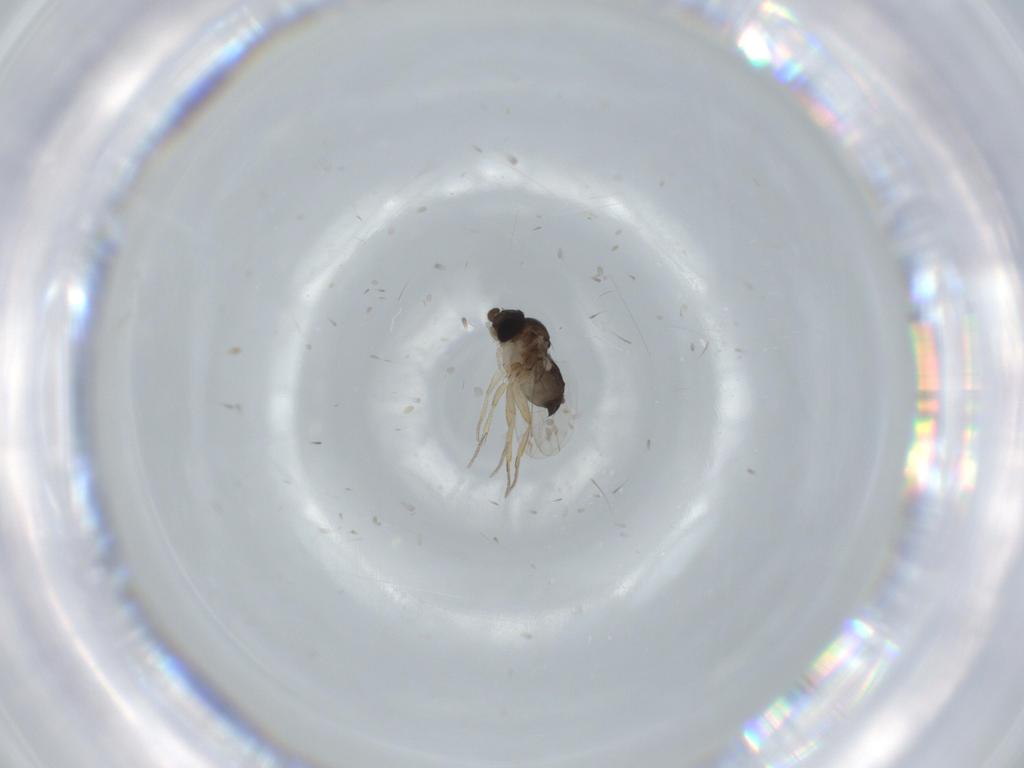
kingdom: Animalia
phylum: Arthropoda
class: Insecta
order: Diptera
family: Phoridae
